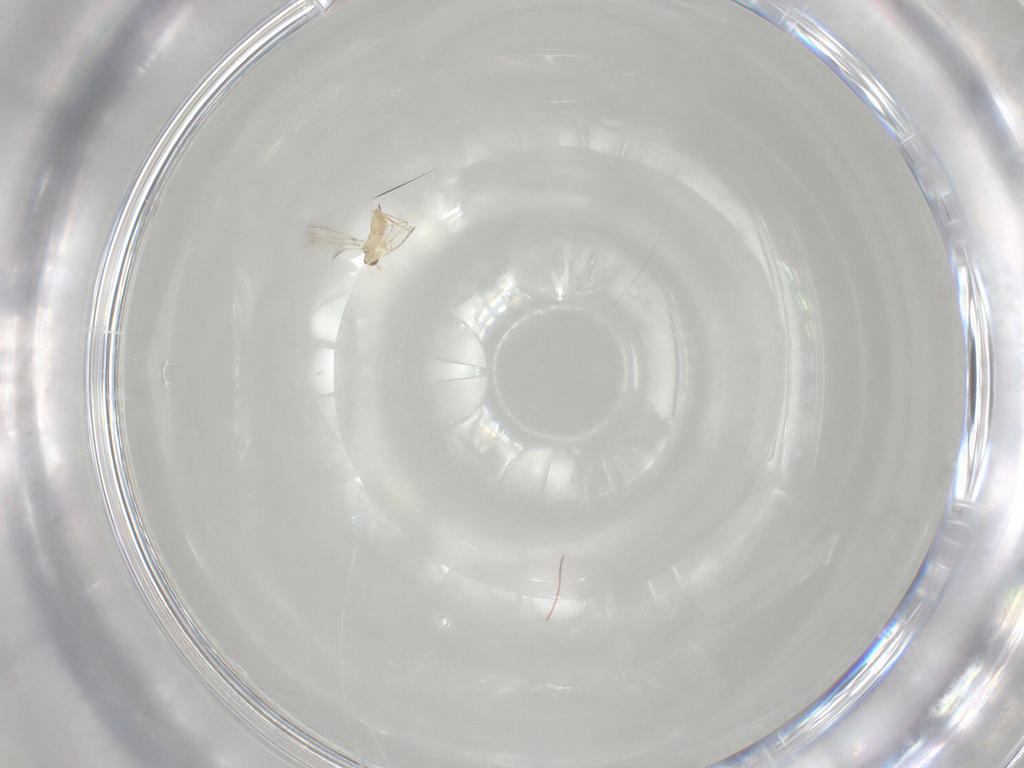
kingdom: Animalia
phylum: Arthropoda
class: Insecta
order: Hymenoptera
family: Mymaridae
